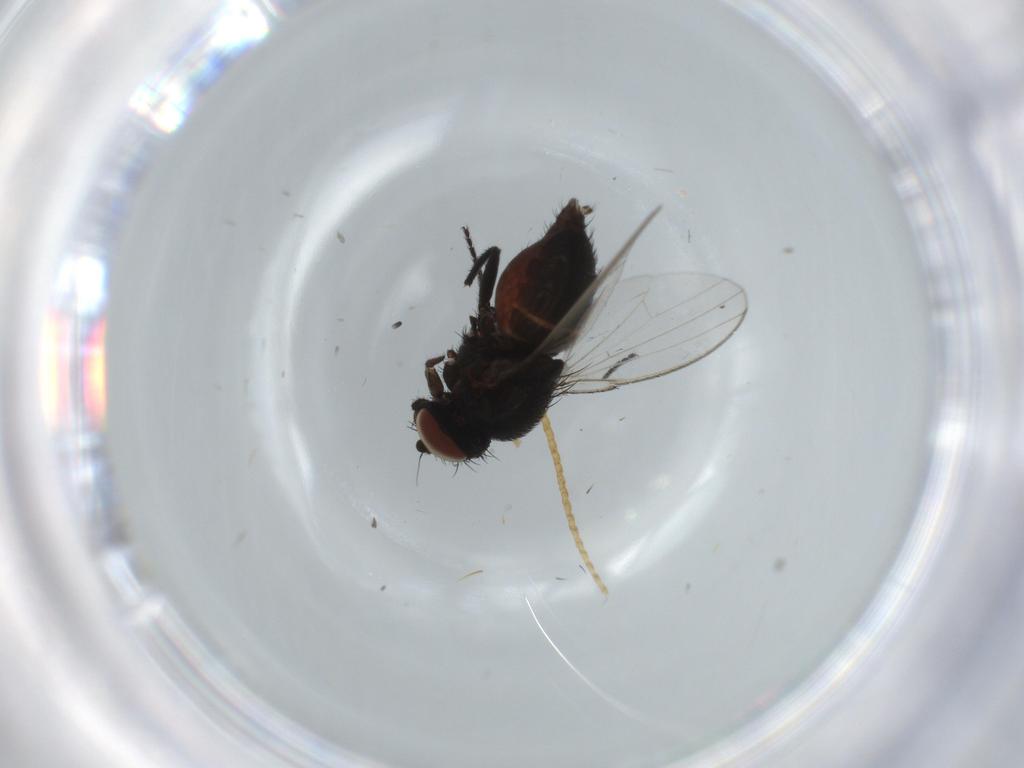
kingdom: Animalia
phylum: Arthropoda
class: Insecta
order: Diptera
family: Milichiidae
